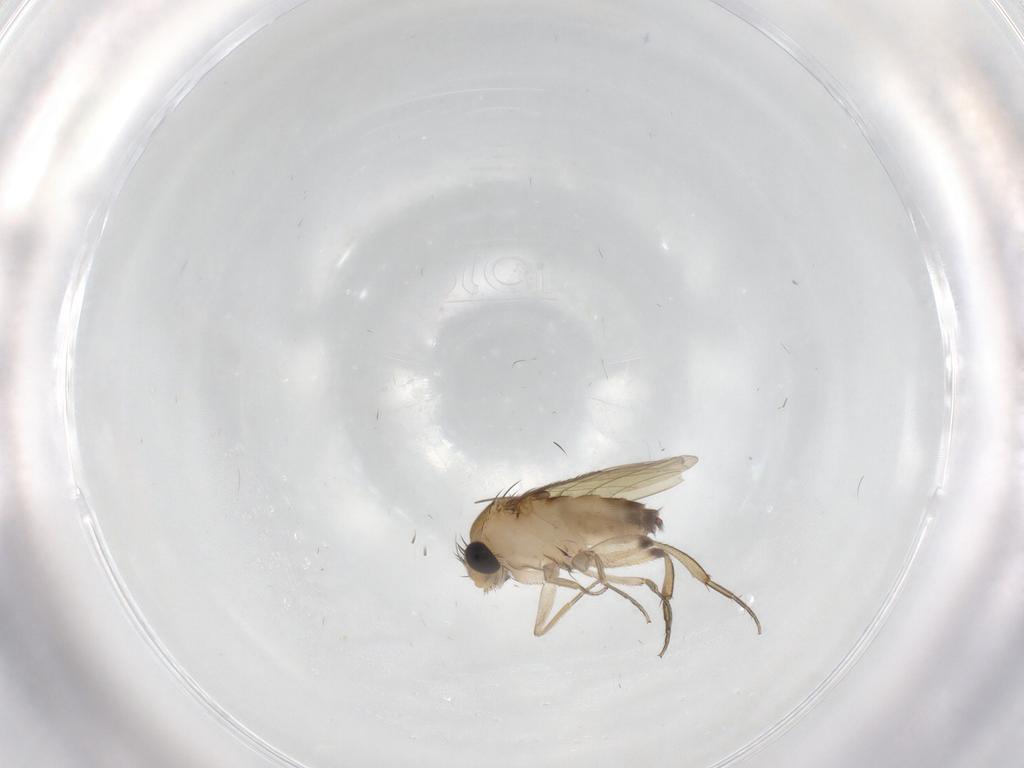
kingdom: Animalia
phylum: Arthropoda
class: Insecta
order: Diptera
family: Phoridae
